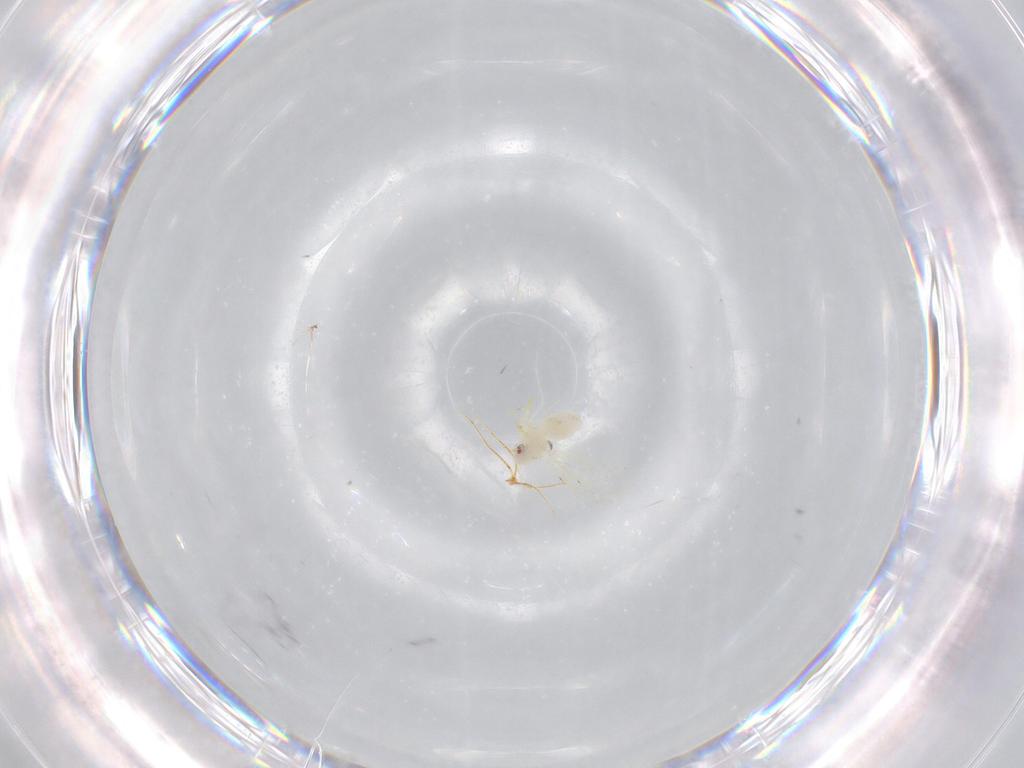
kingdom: Animalia
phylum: Arthropoda
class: Insecta
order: Hemiptera
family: Aleyrodidae
